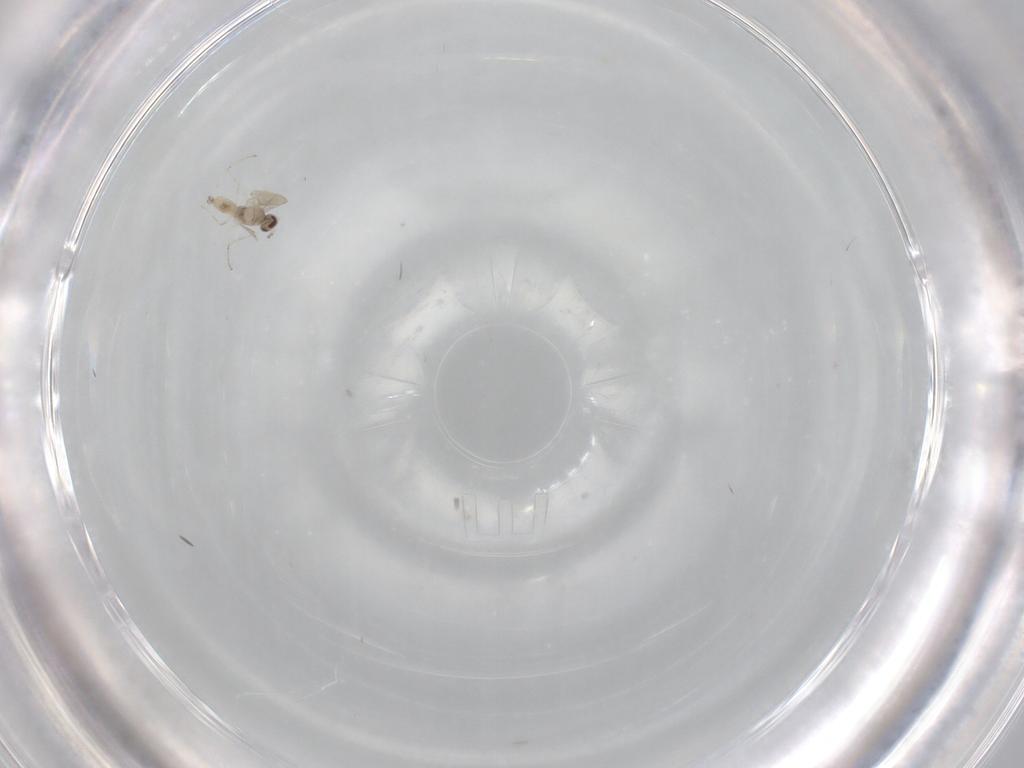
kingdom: Animalia
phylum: Arthropoda
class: Insecta
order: Diptera
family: Cecidomyiidae
